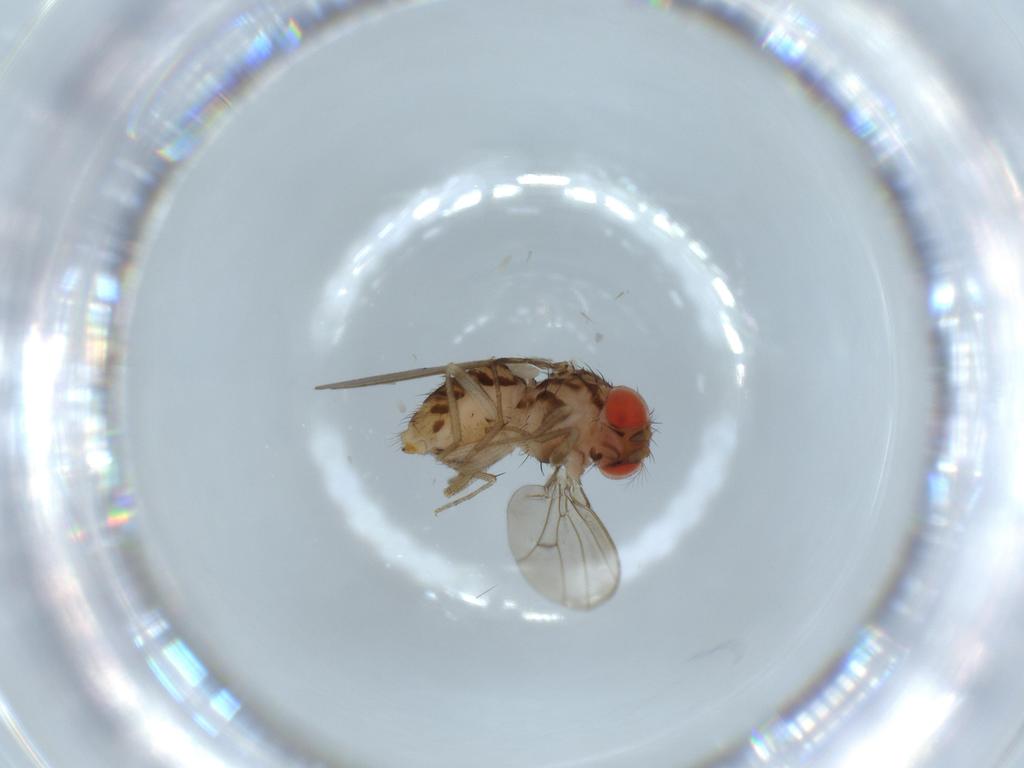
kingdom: Animalia
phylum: Arthropoda
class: Insecta
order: Diptera
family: Drosophilidae
